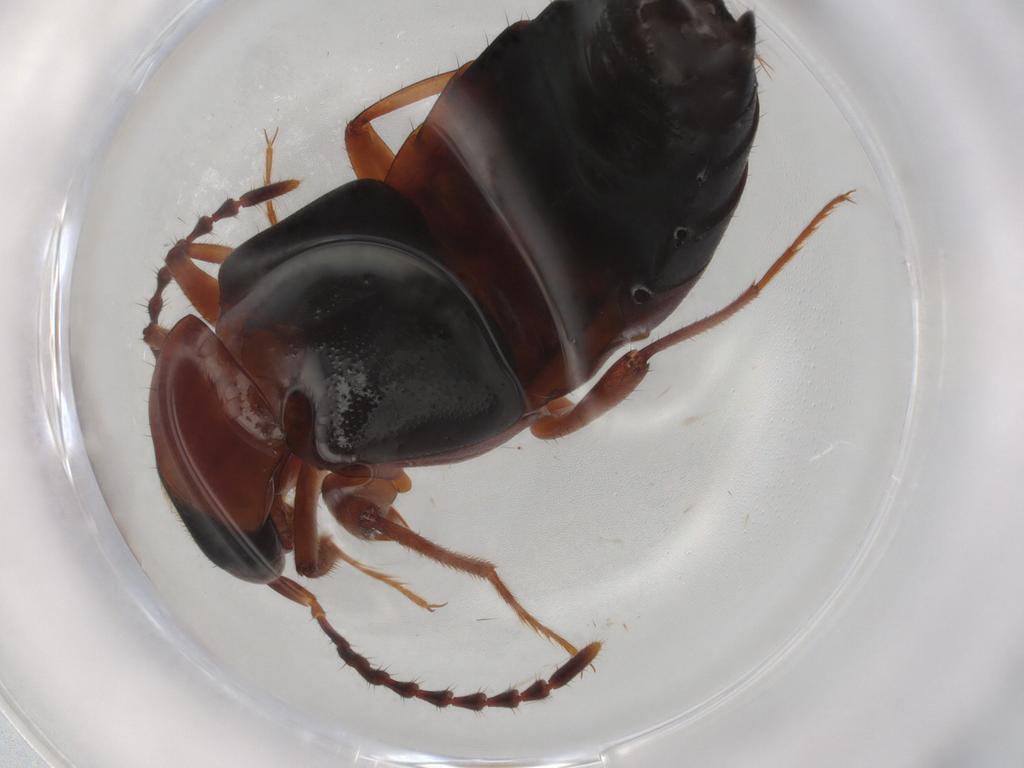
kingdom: Animalia
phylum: Arthropoda
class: Insecta
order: Coleoptera
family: Staphylinidae
